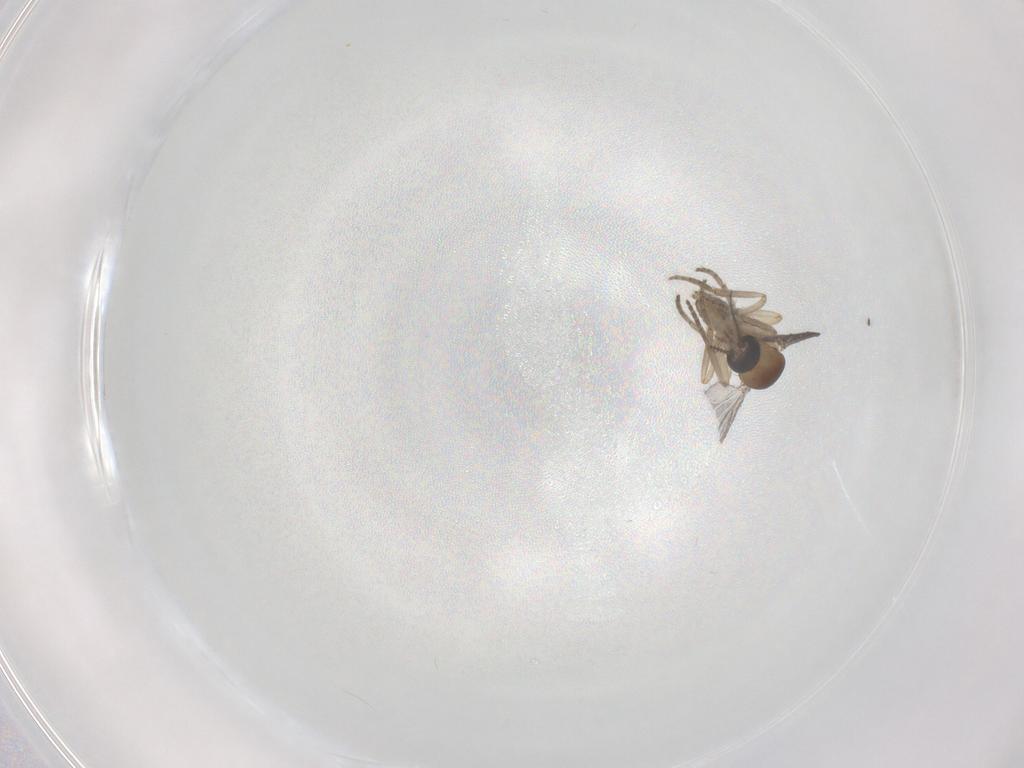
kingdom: Animalia
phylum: Arthropoda
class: Insecta
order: Diptera
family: Ceratopogonidae
